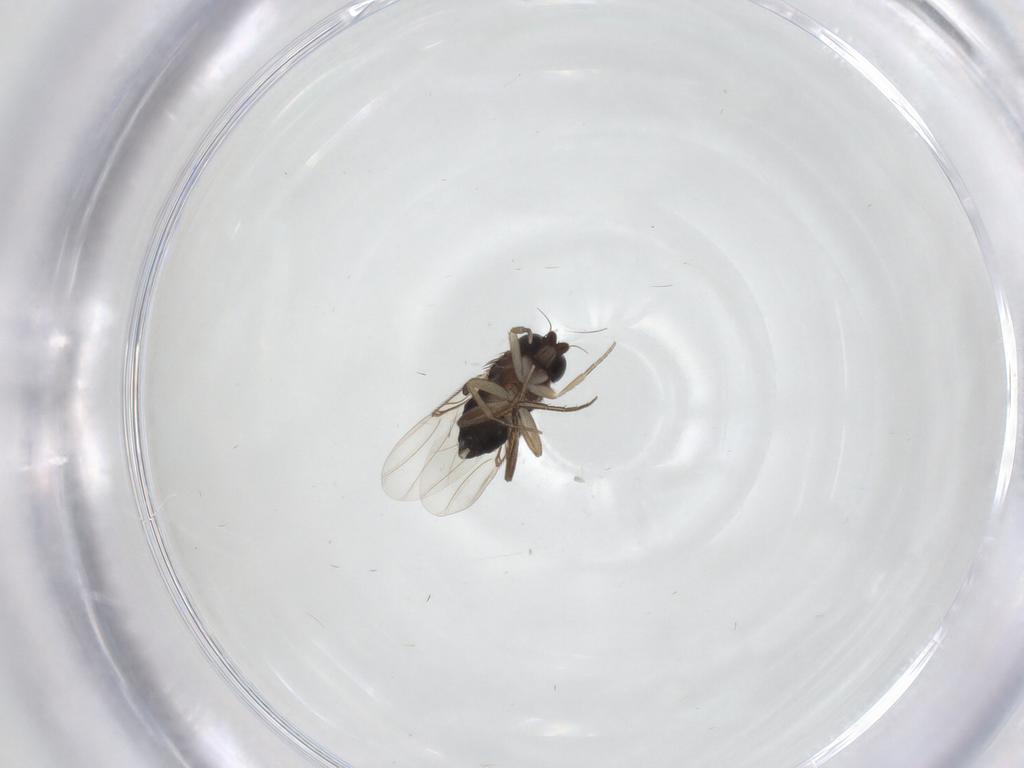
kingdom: Animalia
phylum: Arthropoda
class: Insecta
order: Diptera
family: Phoridae
